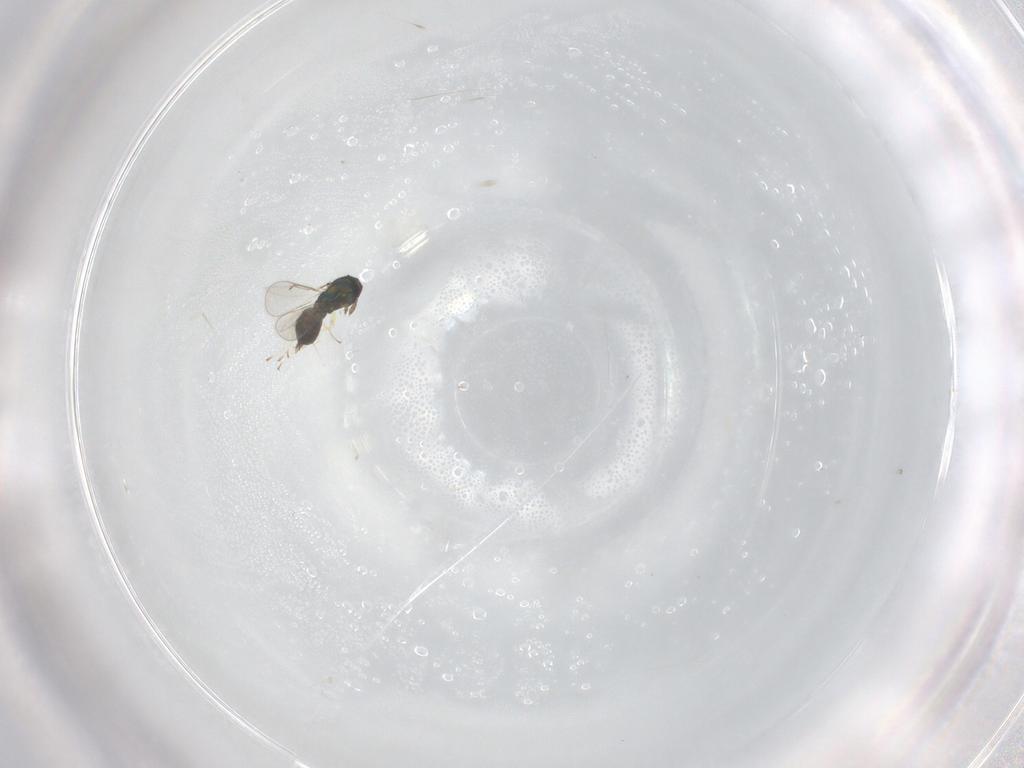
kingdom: Animalia
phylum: Arthropoda
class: Insecta
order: Hymenoptera
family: Eulophidae
